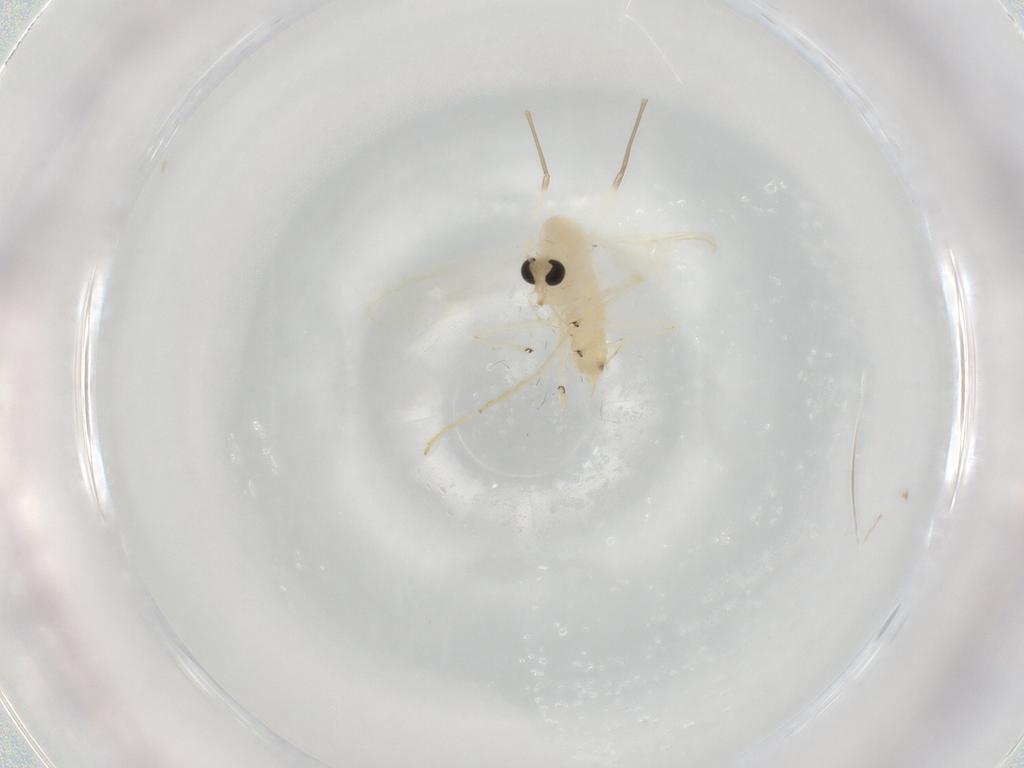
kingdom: Animalia
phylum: Arthropoda
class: Insecta
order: Diptera
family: Chironomidae
